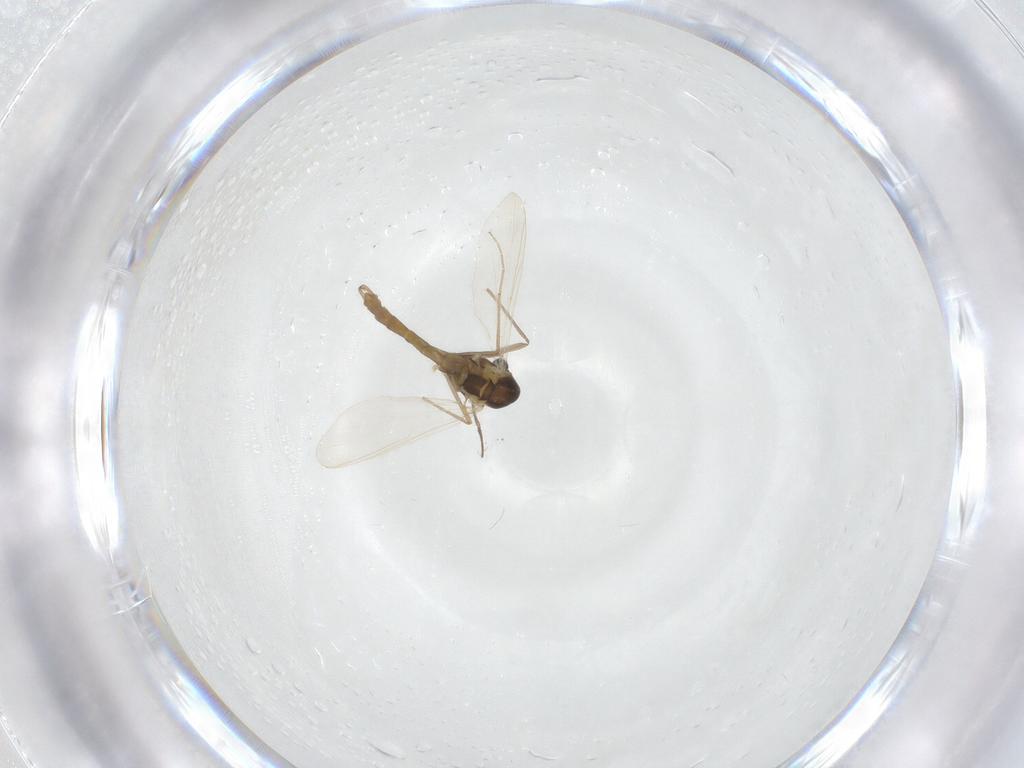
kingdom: Animalia
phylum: Arthropoda
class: Insecta
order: Diptera
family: Chironomidae
